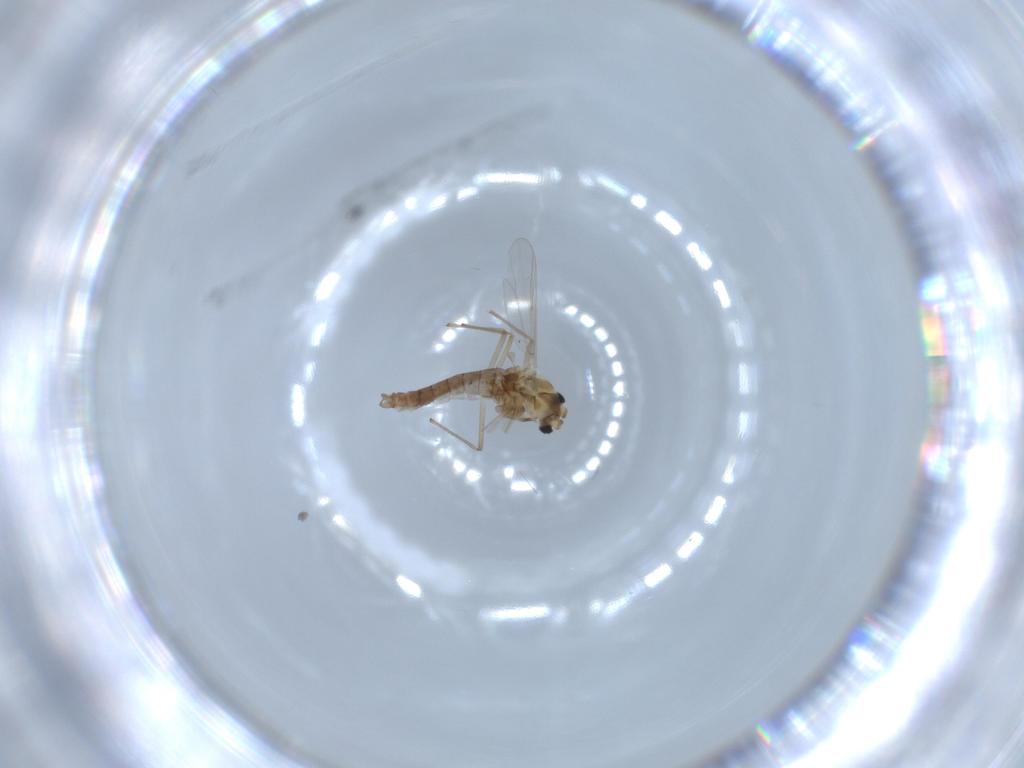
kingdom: Animalia
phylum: Arthropoda
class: Insecta
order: Diptera
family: Chironomidae
